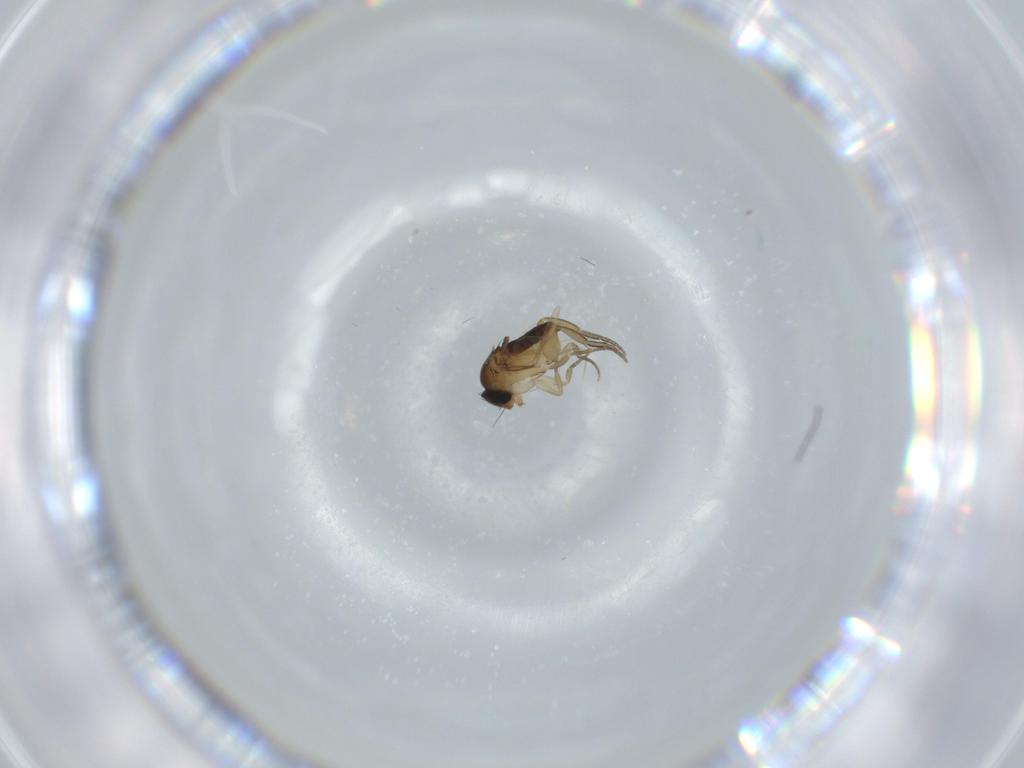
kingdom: Animalia
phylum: Arthropoda
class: Insecta
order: Diptera
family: Phoridae
